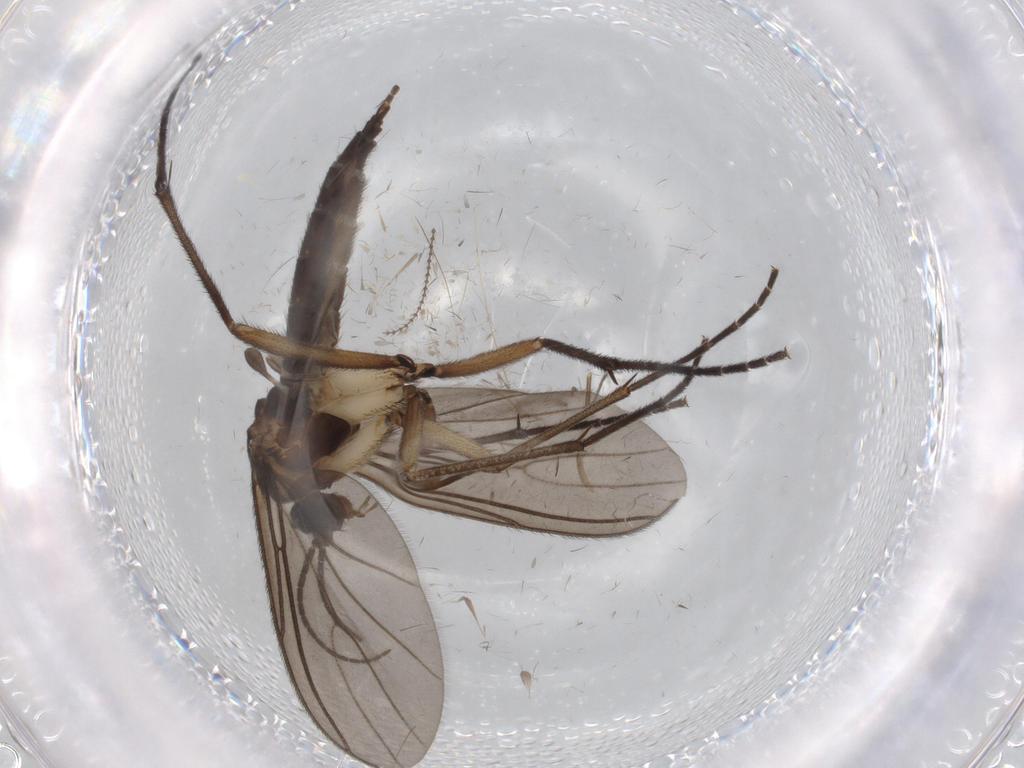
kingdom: Animalia
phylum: Arthropoda
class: Insecta
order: Diptera
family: Sciaridae
